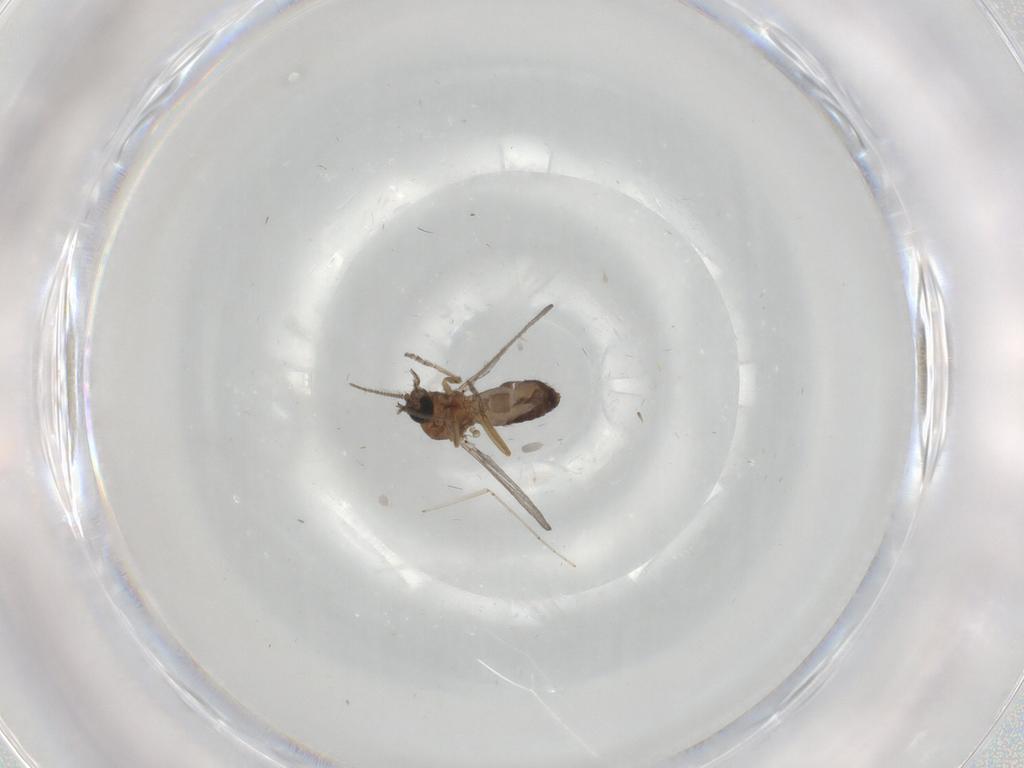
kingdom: Animalia
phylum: Arthropoda
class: Insecta
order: Diptera
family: Ceratopogonidae
